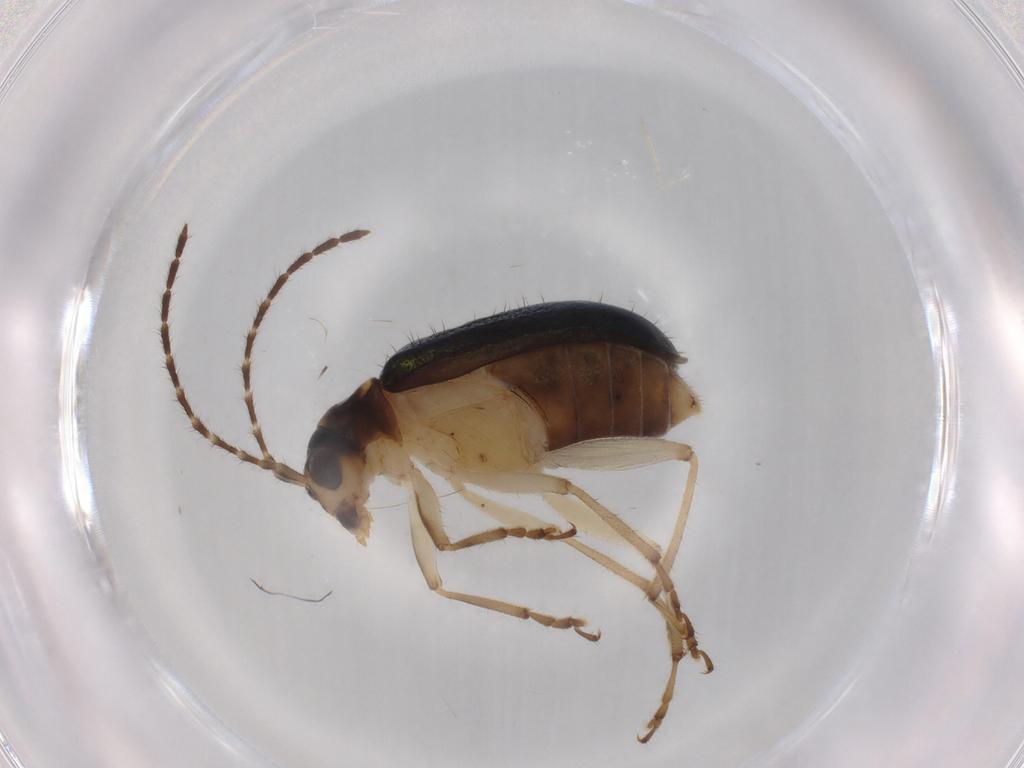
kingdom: Animalia
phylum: Arthropoda
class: Insecta
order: Coleoptera
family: Chrysomelidae
